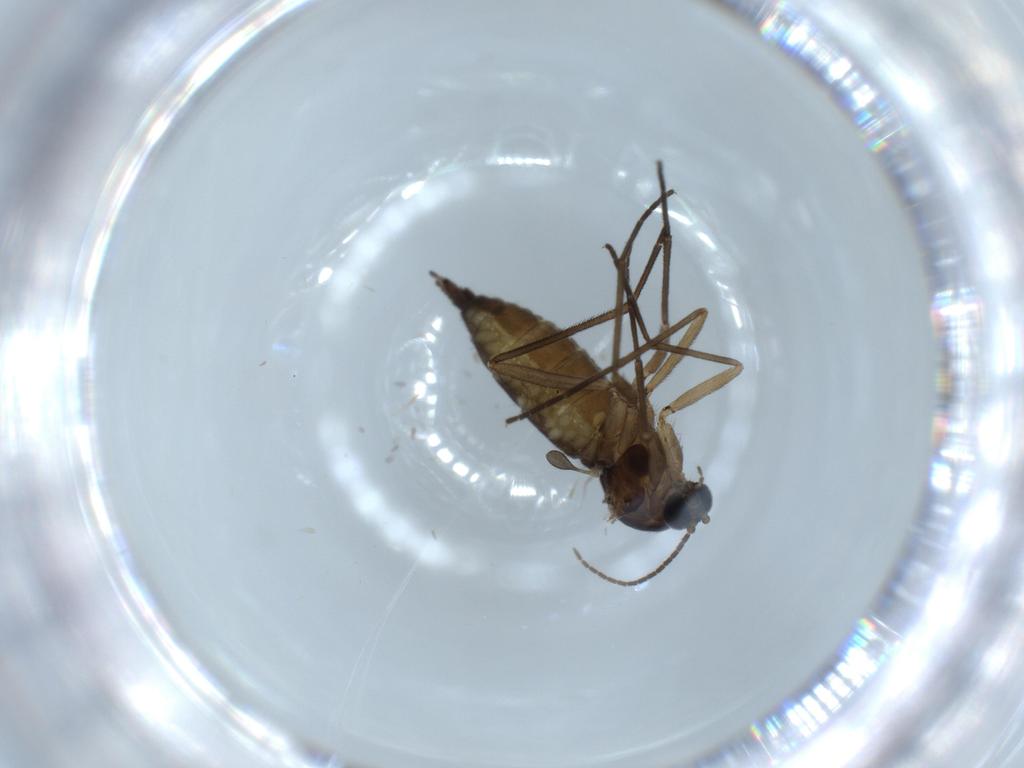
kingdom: Animalia
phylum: Arthropoda
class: Insecta
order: Diptera
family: Sciaridae
